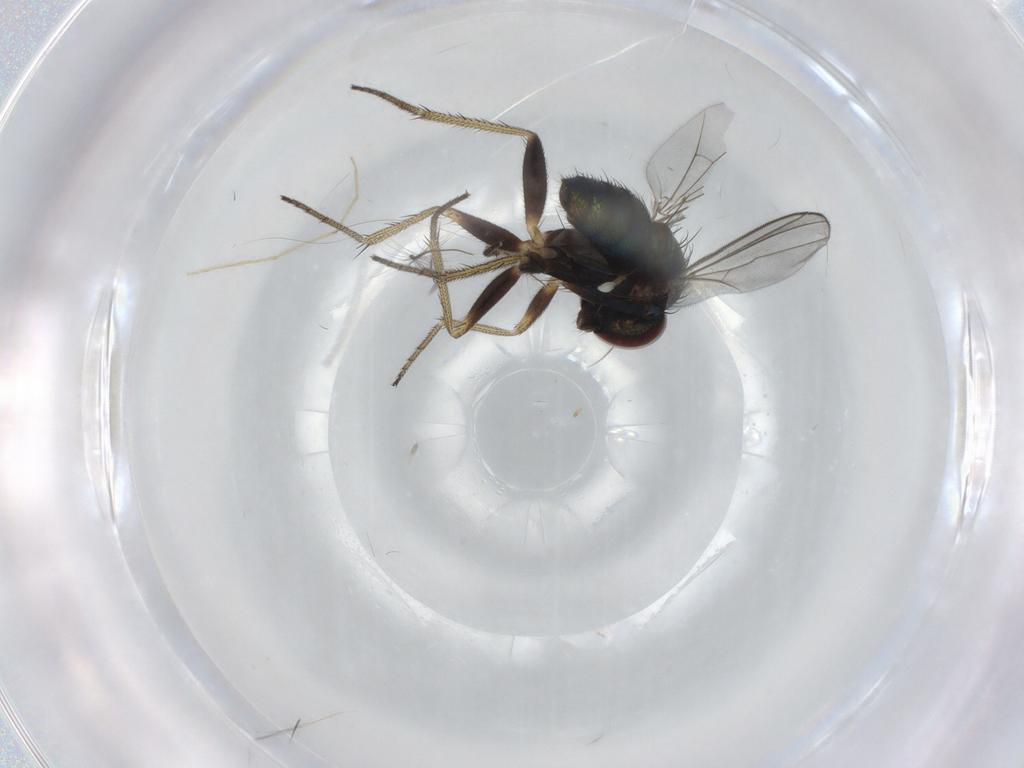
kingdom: Animalia
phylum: Arthropoda
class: Insecta
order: Diptera
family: Dolichopodidae
